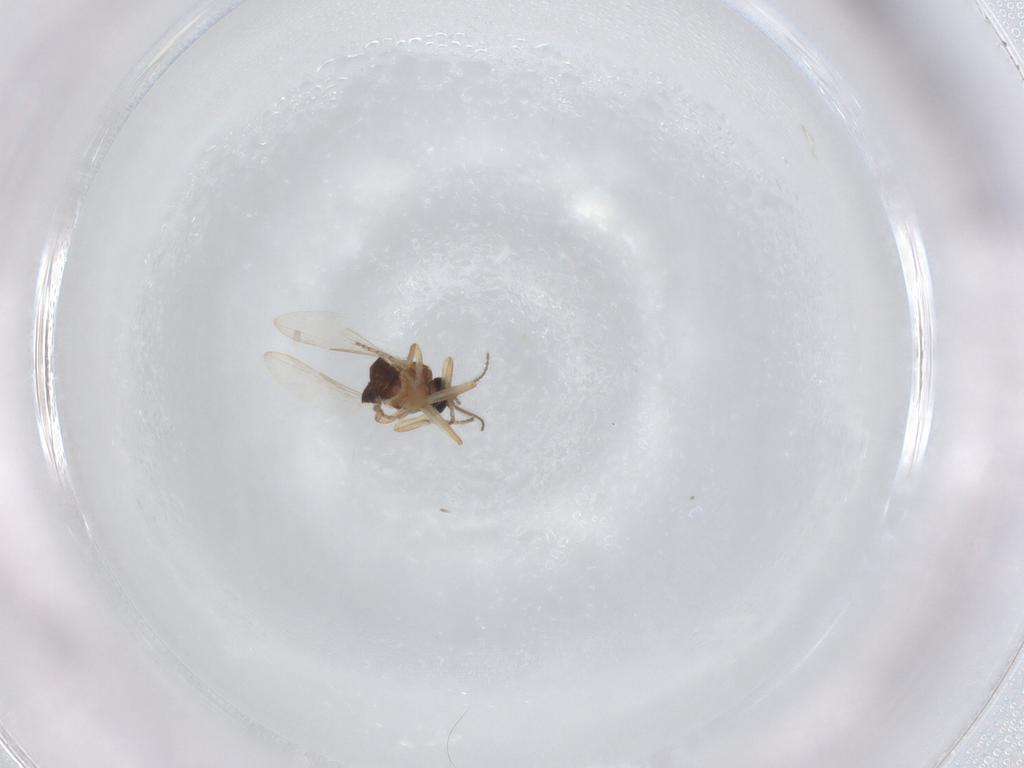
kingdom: Animalia
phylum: Arthropoda
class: Insecta
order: Diptera
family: Ceratopogonidae
